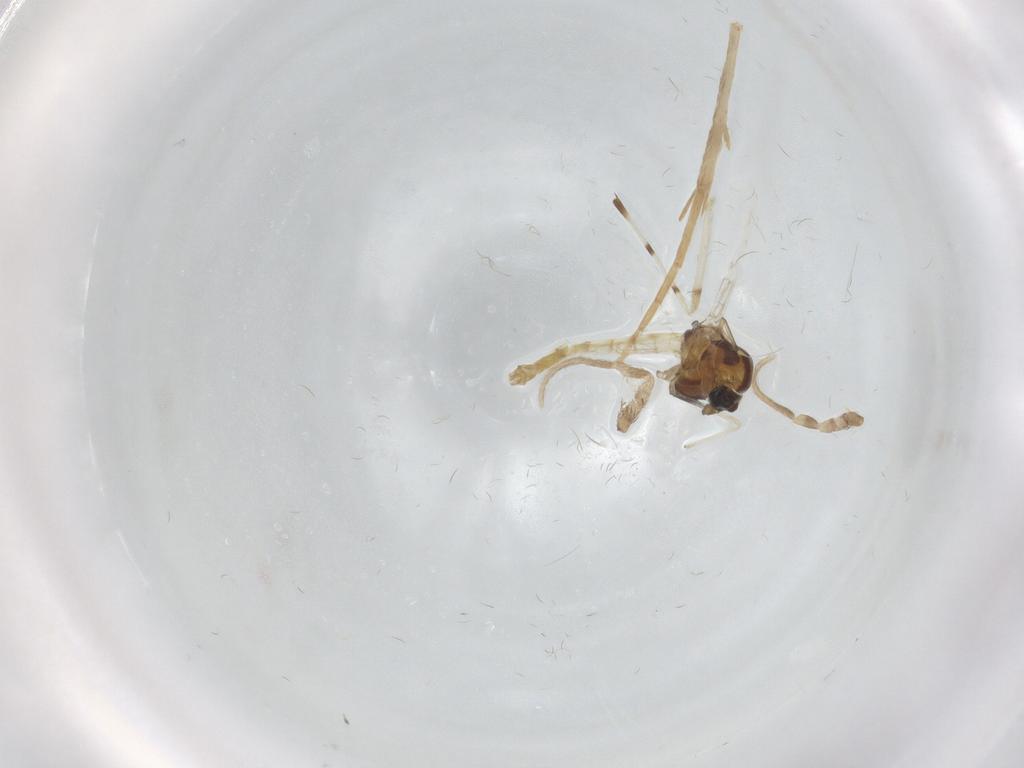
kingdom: Animalia
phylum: Arthropoda
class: Insecta
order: Diptera
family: Chironomidae
